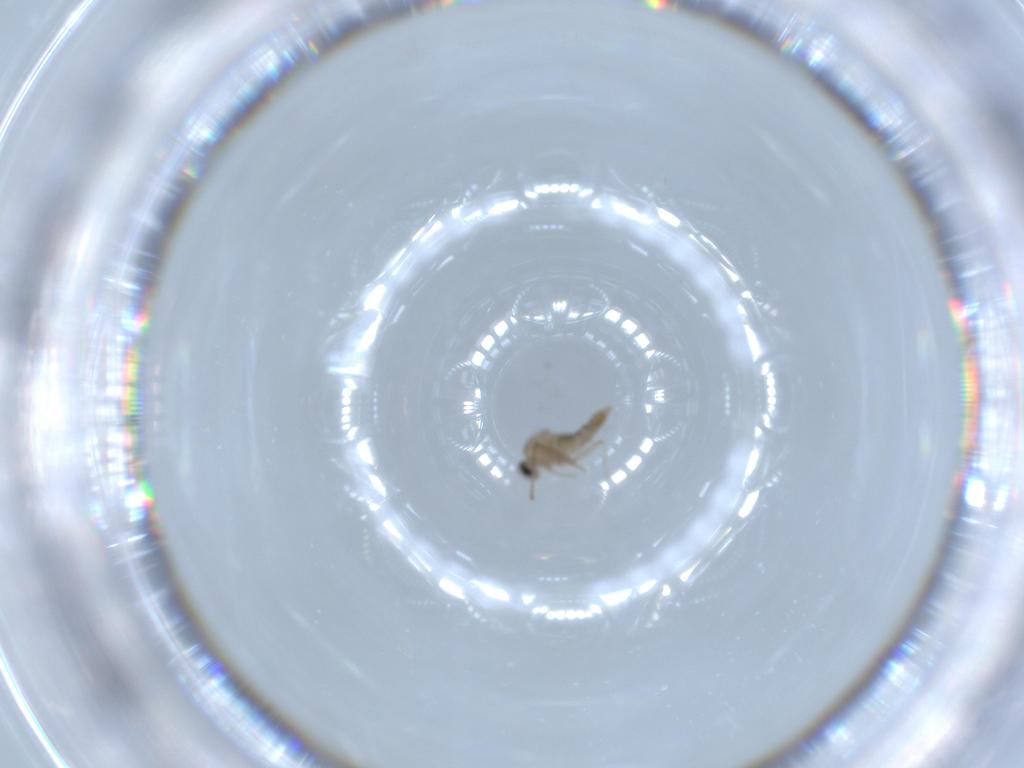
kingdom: Animalia
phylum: Arthropoda
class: Insecta
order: Diptera
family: Cecidomyiidae
